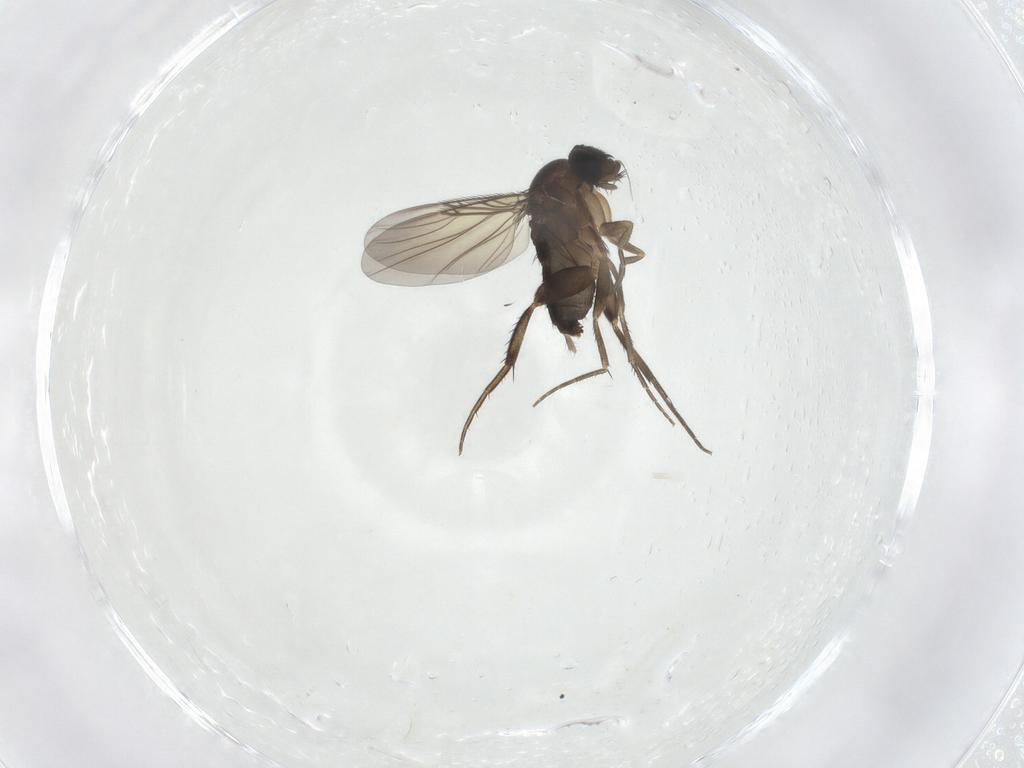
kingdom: Animalia
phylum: Arthropoda
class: Insecta
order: Diptera
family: Phoridae
